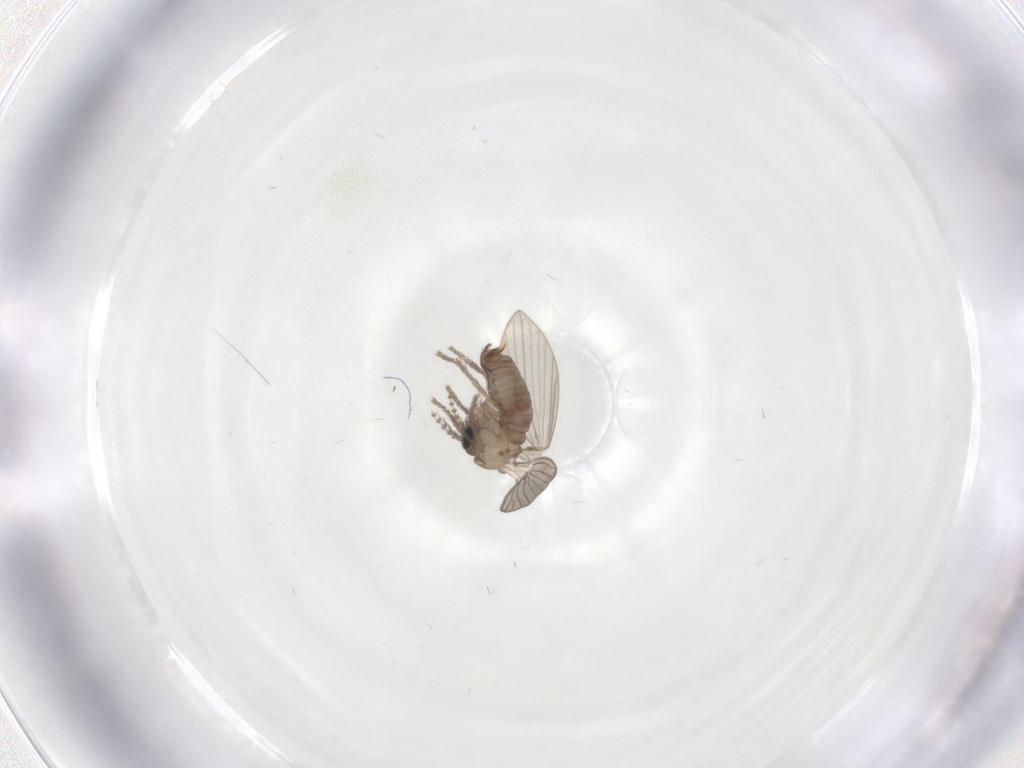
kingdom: Animalia
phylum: Arthropoda
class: Insecta
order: Diptera
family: Psychodidae
